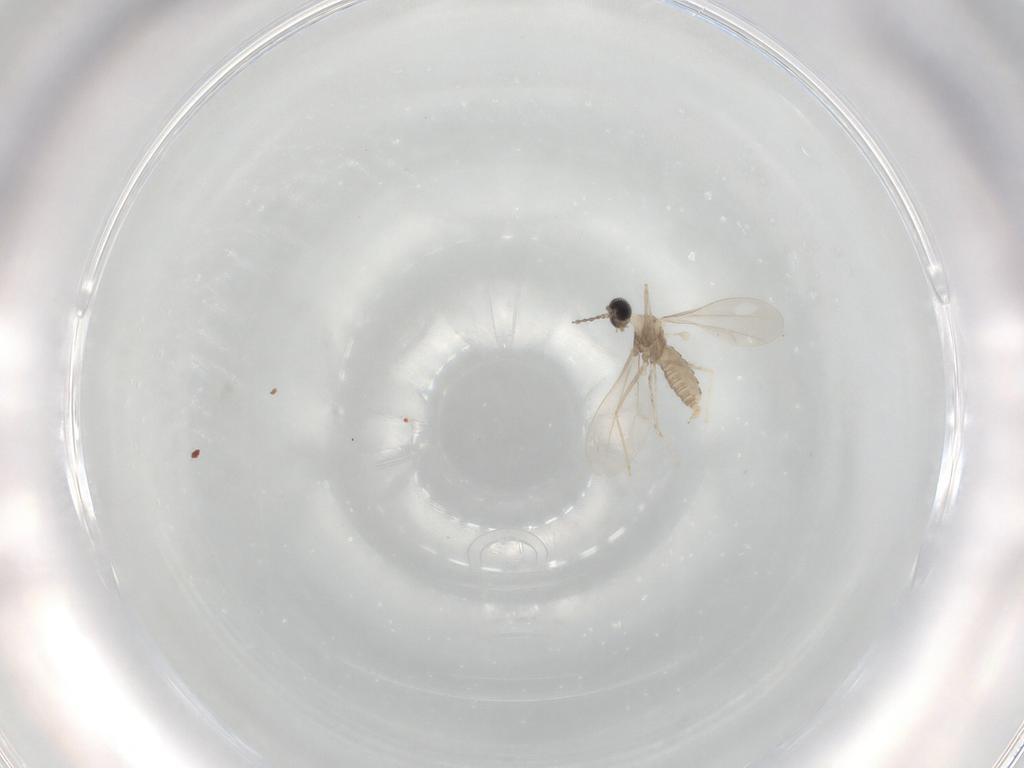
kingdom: Animalia
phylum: Arthropoda
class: Insecta
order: Diptera
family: Cecidomyiidae
